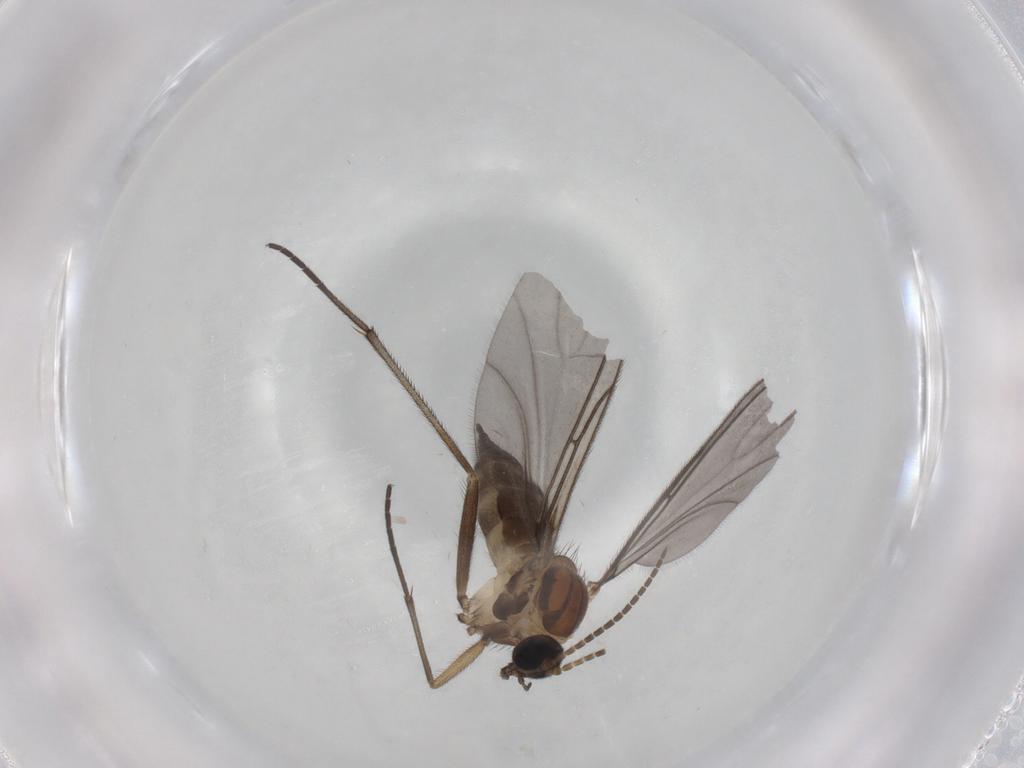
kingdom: Animalia
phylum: Arthropoda
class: Insecta
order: Diptera
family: Sciaridae
